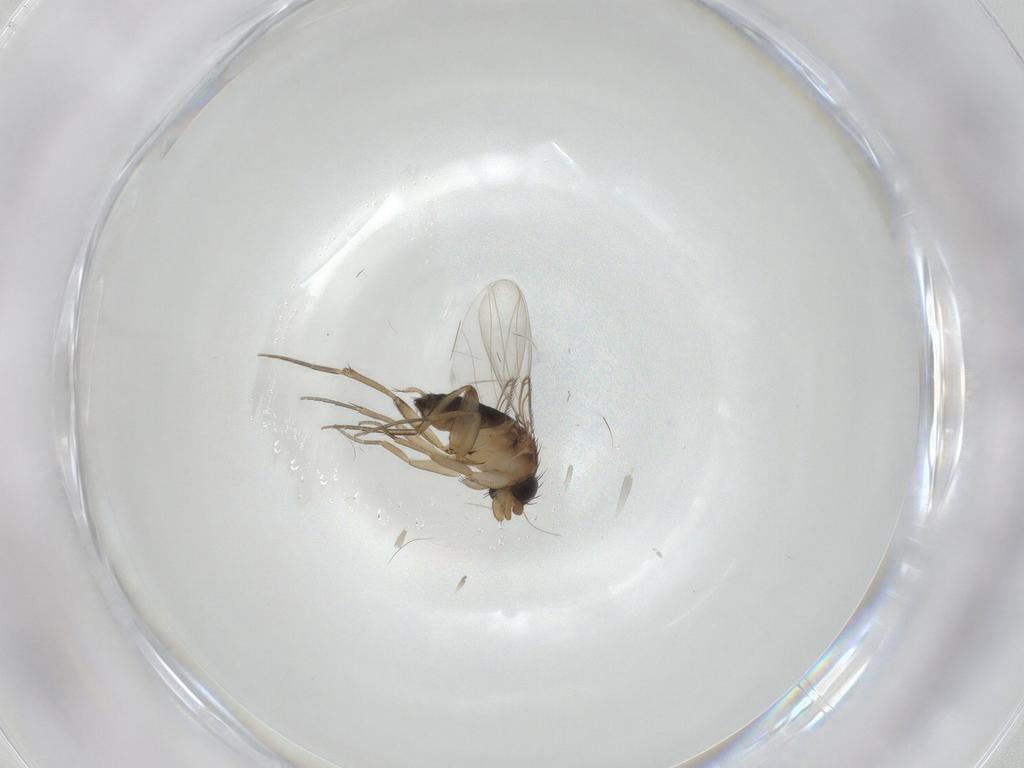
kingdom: Animalia
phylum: Arthropoda
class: Insecta
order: Diptera
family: Phoridae
